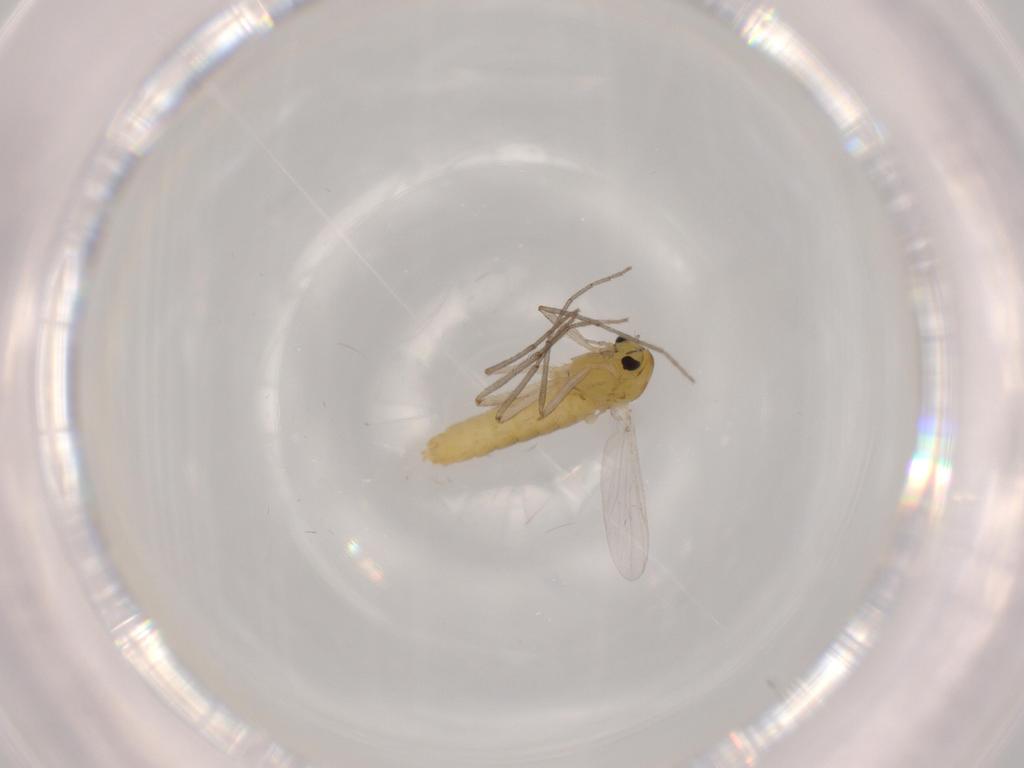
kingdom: Animalia
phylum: Arthropoda
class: Insecta
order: Diptera
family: Chironomidae
